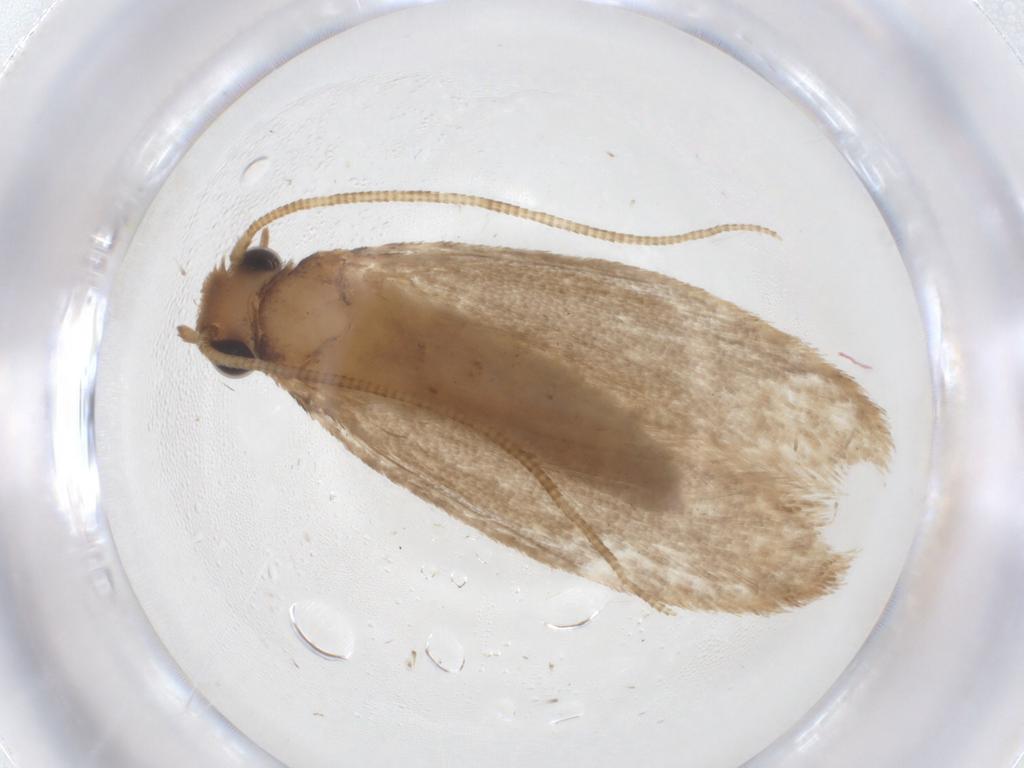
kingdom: Animalia
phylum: Arthropoda
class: Insecta
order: Lepidoptera
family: Tineidae
